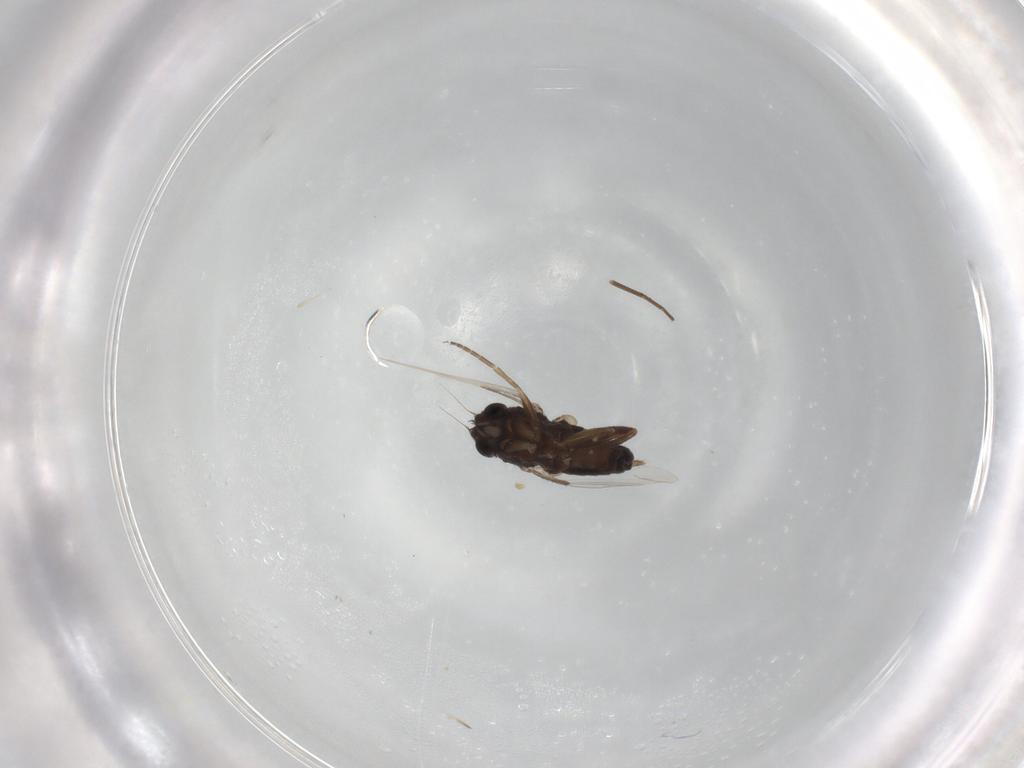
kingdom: Animalia
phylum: Arthropoda
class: Insecta
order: Diptera
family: Phoridae
